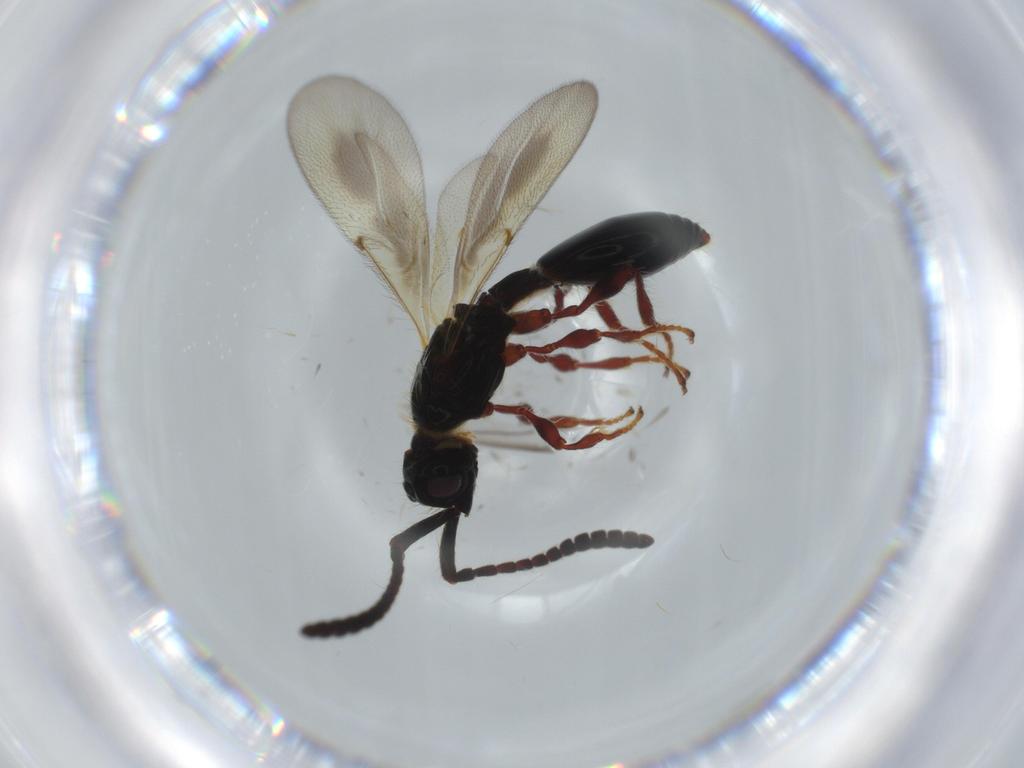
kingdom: Animalia
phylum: Arthropoda
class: Insecta
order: Hymenoptera
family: Diapriidae
